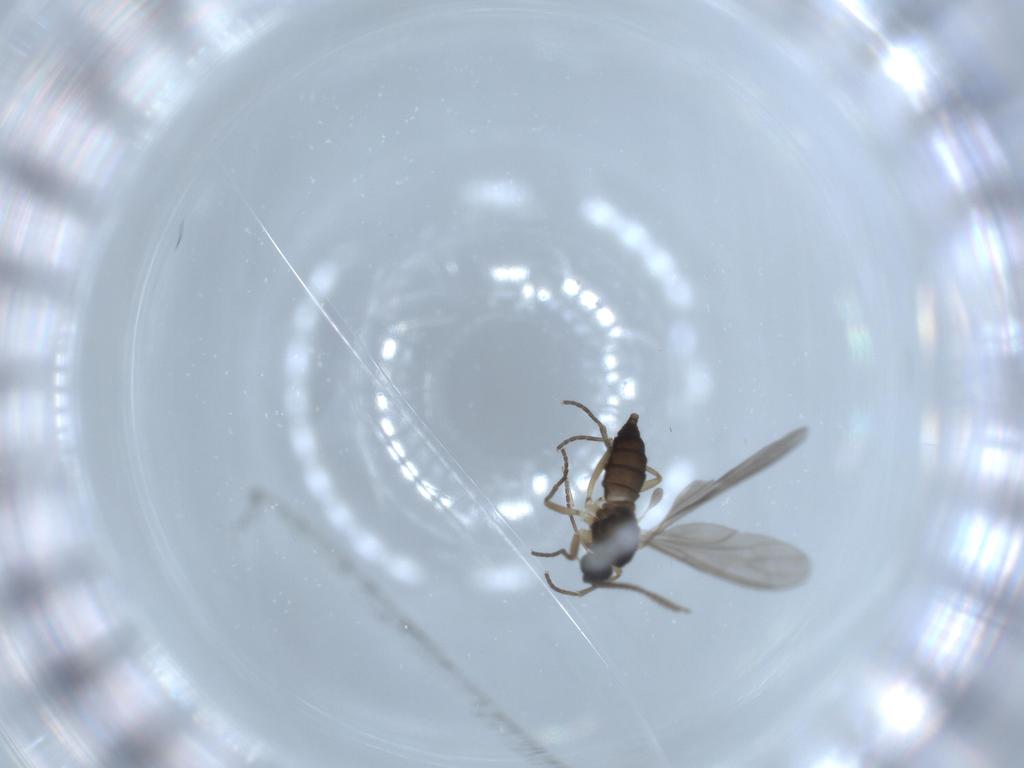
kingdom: Animalia
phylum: Arthropoda
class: Insecta
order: Diptera
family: Sciaridae
